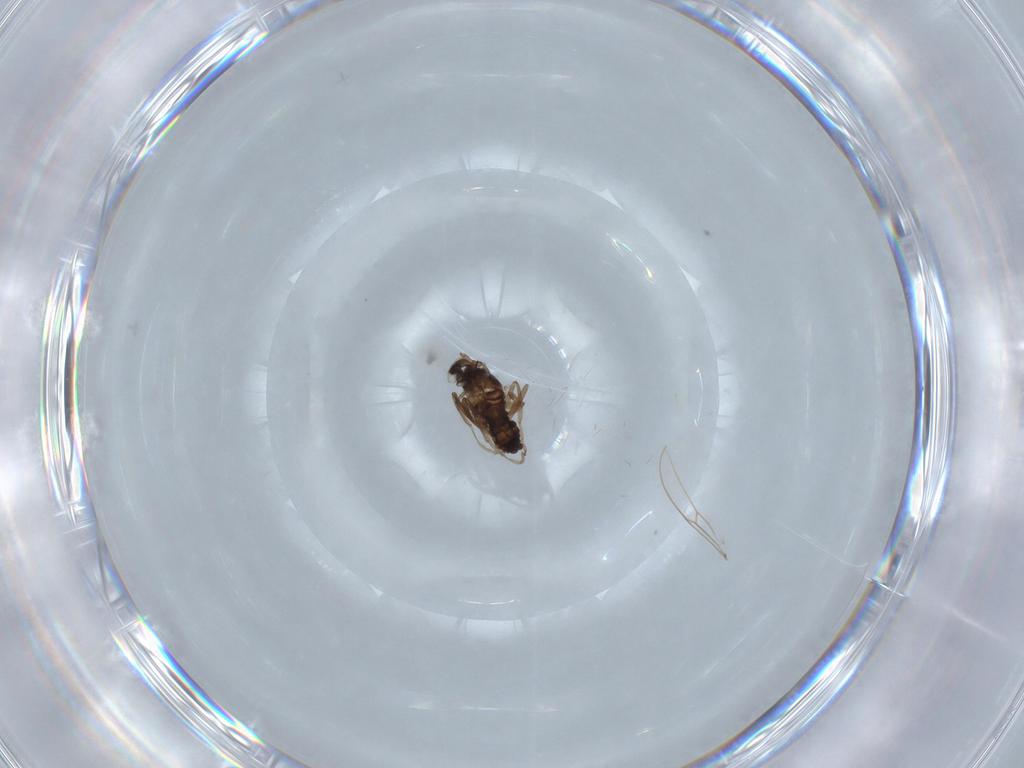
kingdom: Animalia
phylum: Arthropoda
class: Insecta
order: Diptera
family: Cecidomyiidae
